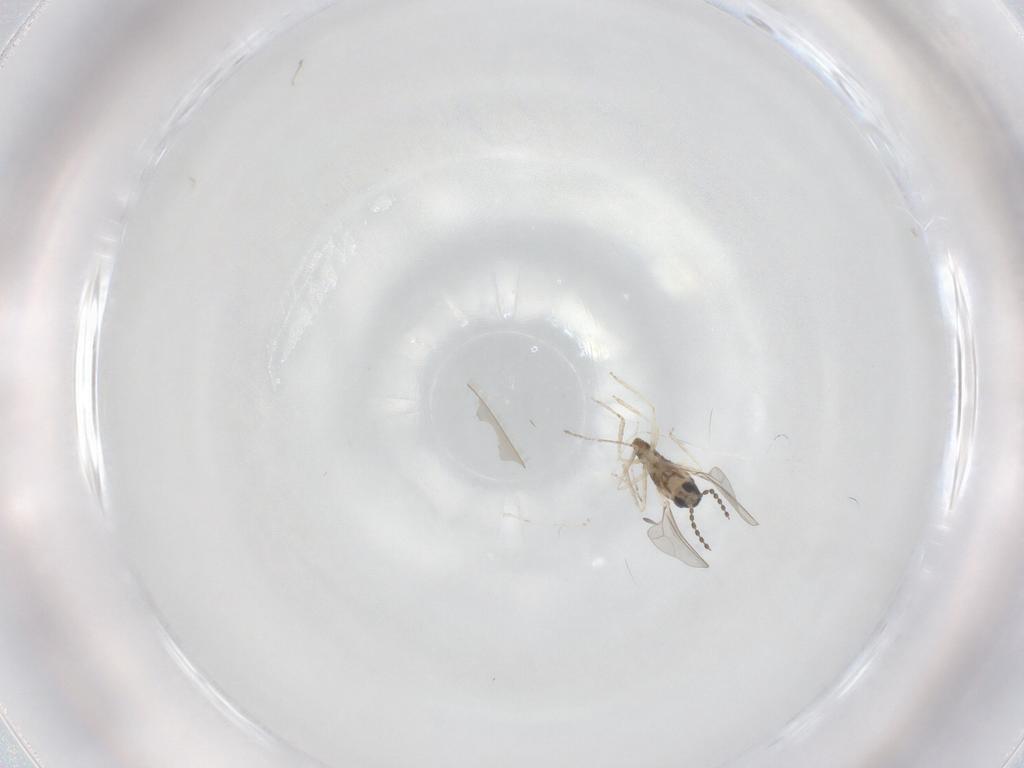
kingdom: Animalia
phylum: Arthropoda
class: Insecta
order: Diptera
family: Cecidomyiidae
